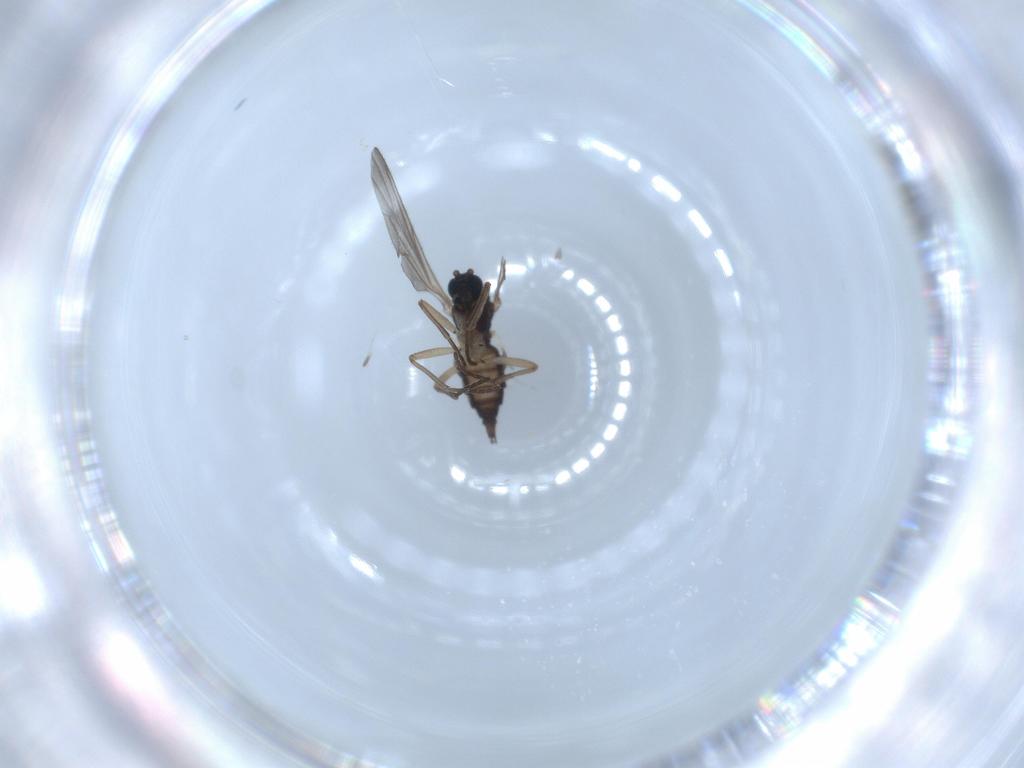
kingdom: Animalia
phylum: Arthropoda
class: Insecta
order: Diptera
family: Sciaridae
